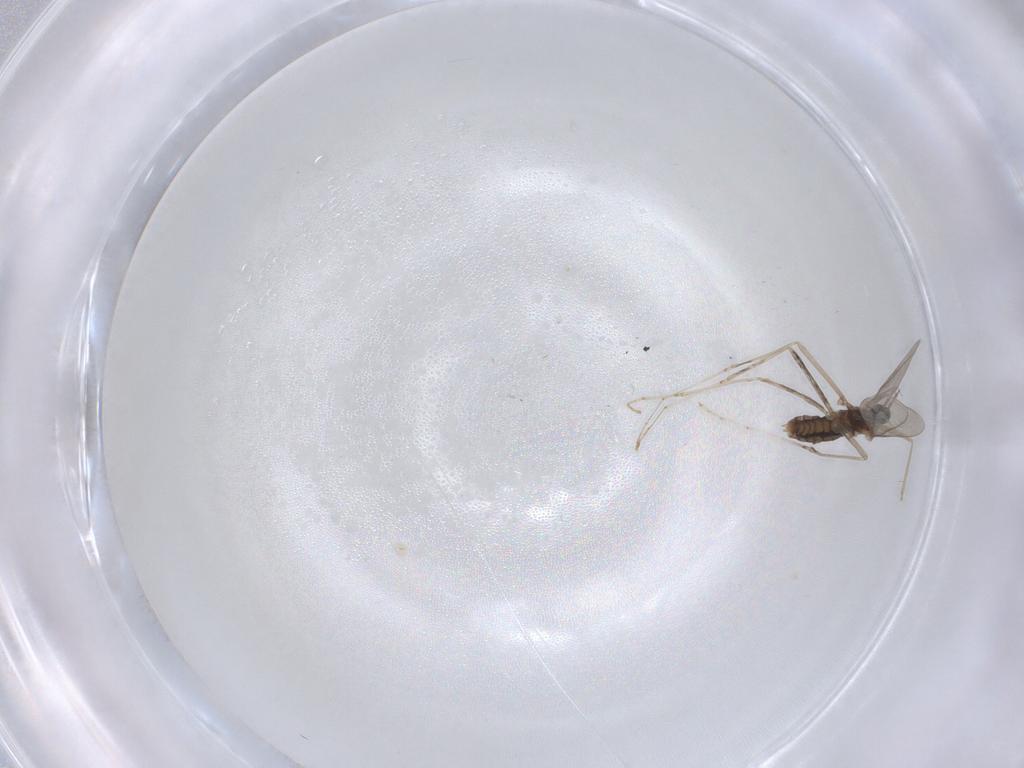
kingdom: Animalia
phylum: Arthropoda
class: Insecta
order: Diptera
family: Cecidomyiidae
